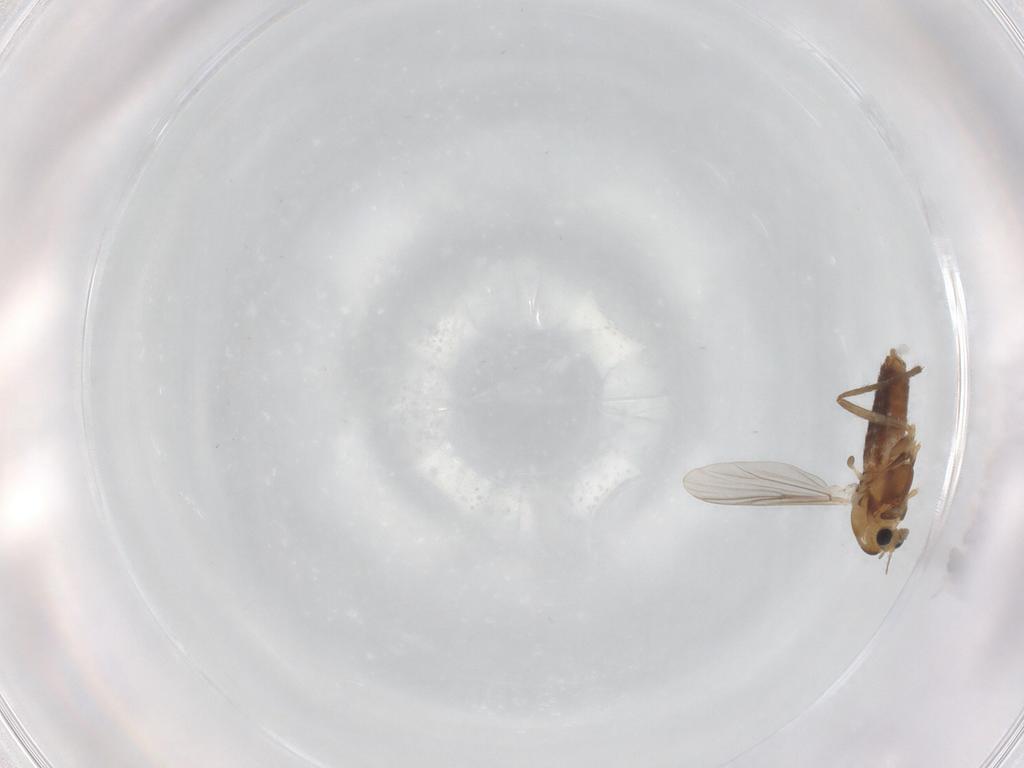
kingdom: Animalia
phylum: Arthropoda
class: Insecta
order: Diptera
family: Chironomidae
